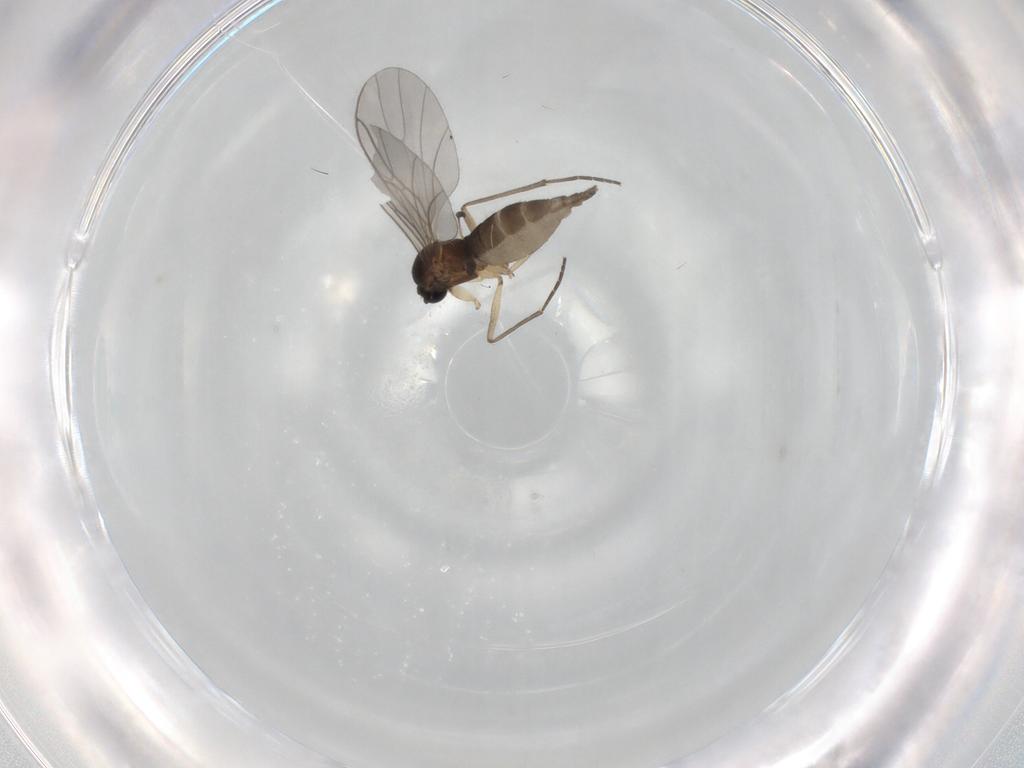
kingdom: Animalia
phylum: Arthropoda
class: Insecta
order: Diptera
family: Sciaridae
